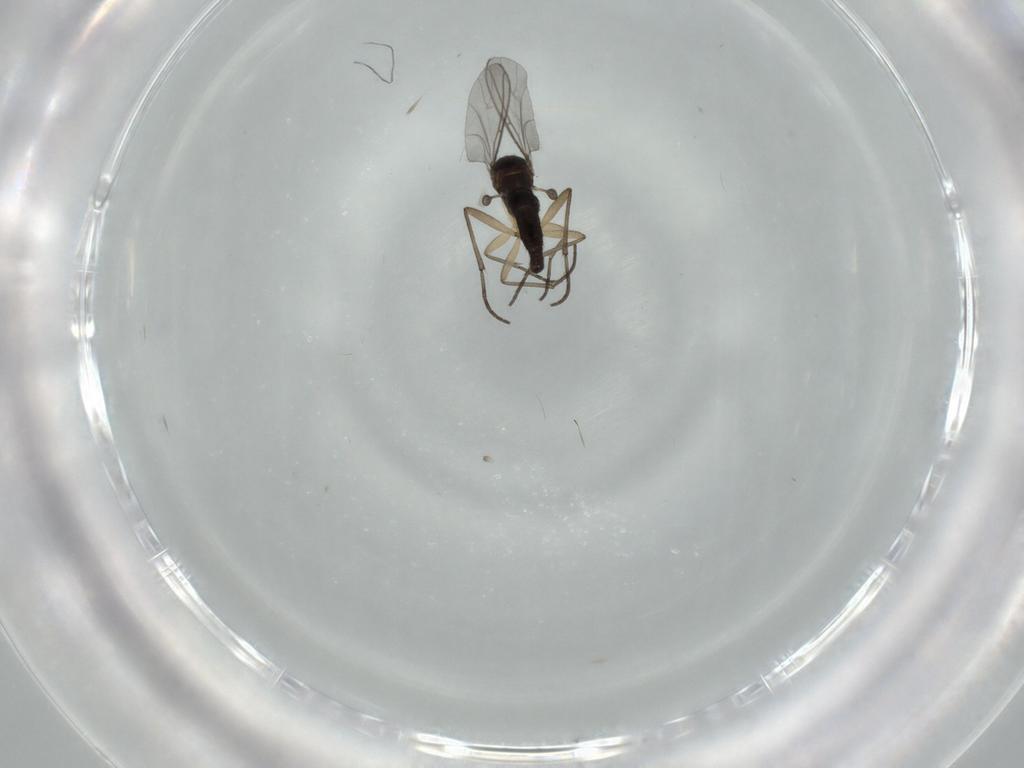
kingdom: Animalia
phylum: Arthropoda
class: Insecta
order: Diptera
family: Sciaridae
